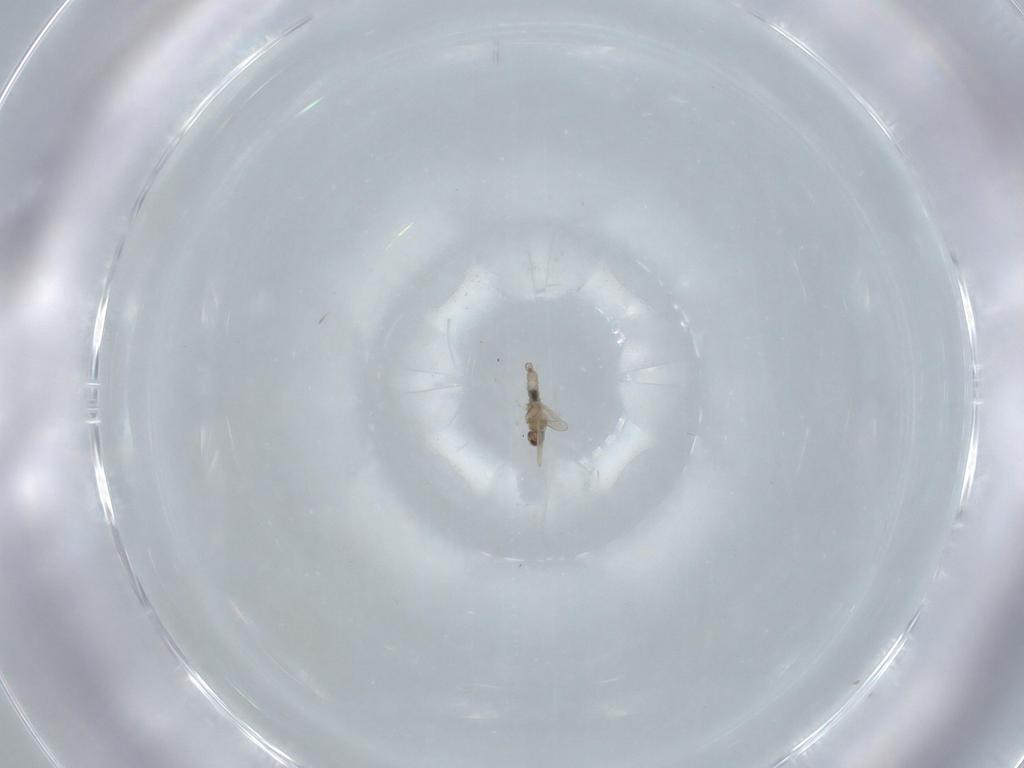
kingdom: Animalia
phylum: Arthropoda
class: Insecta
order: Diptera
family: Cecidomyiidae
